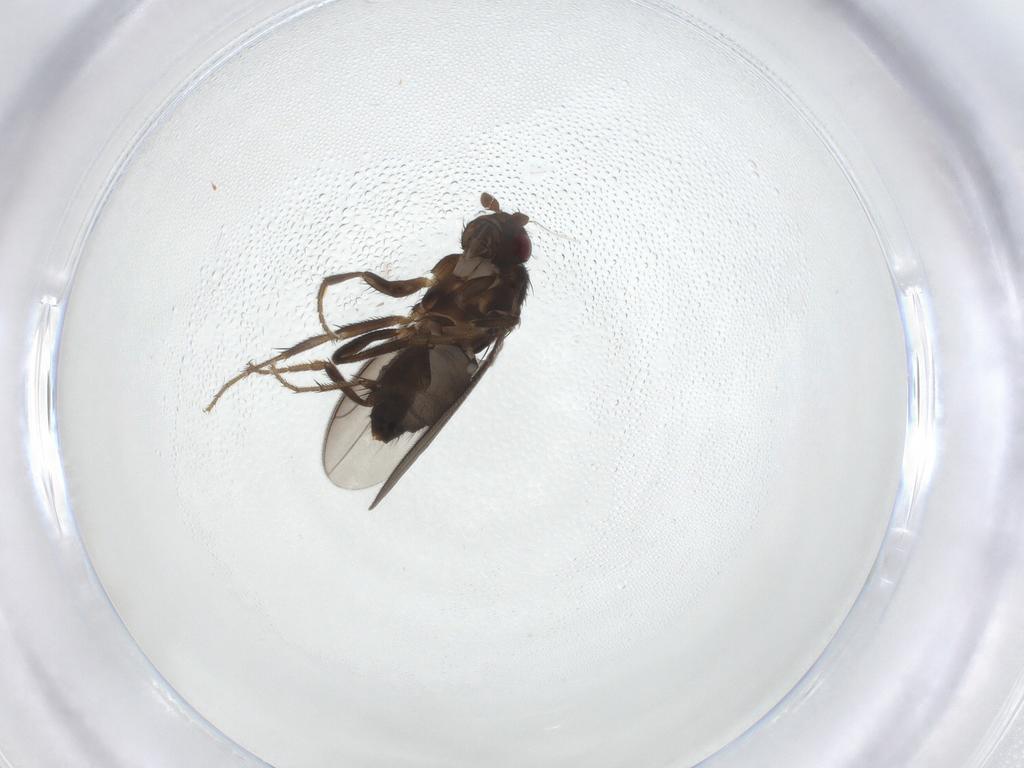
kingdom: Animalia
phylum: Arthropoda
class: Insecta
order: Diptera
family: Sphaeroceridae
